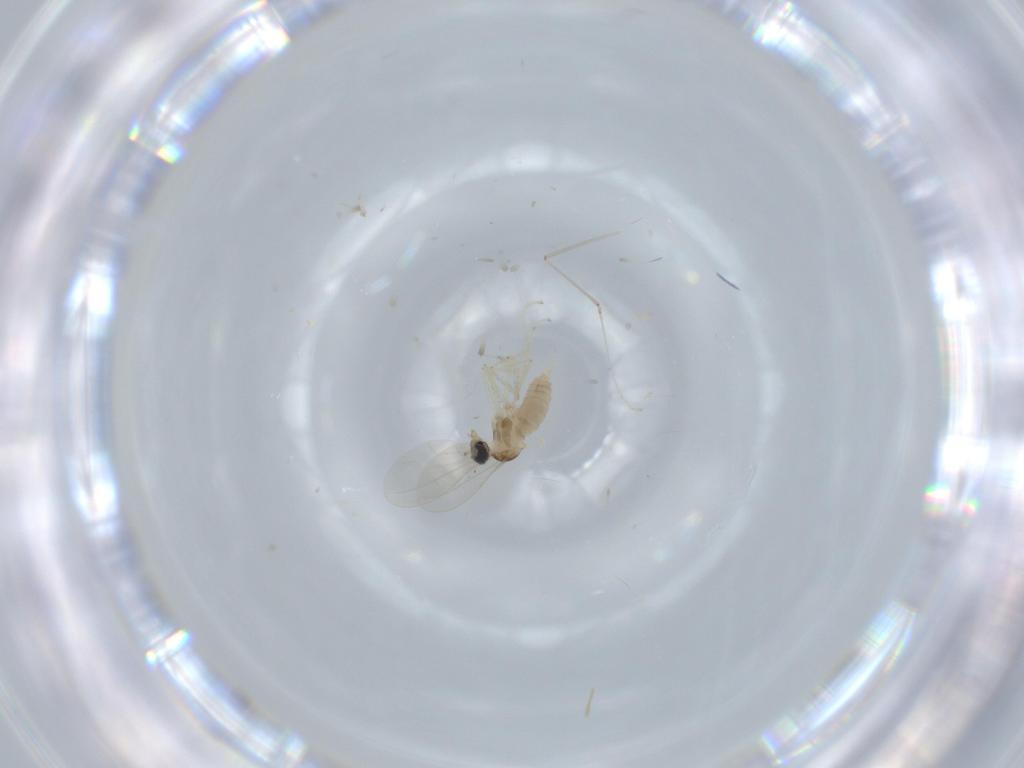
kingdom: Animalia
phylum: Arthropoda
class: Insecta
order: Diptera
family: Cecidomyiidae
